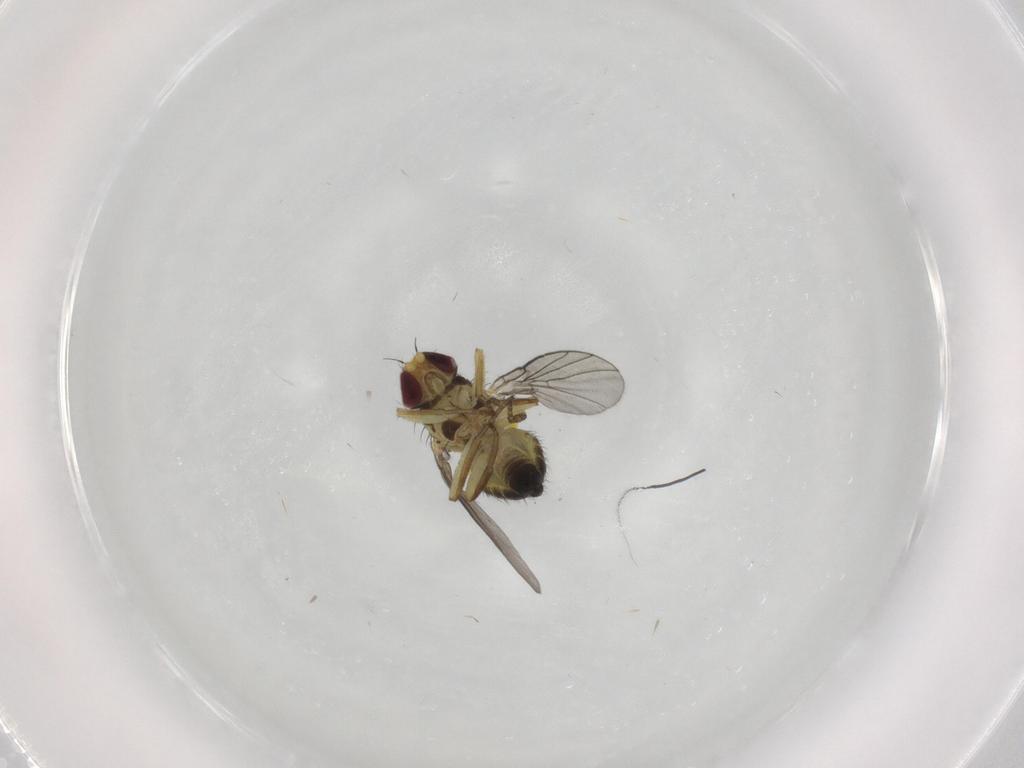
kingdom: Animalia
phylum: Arthropoda
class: Insecta
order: Diptera
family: Agromyzidae
